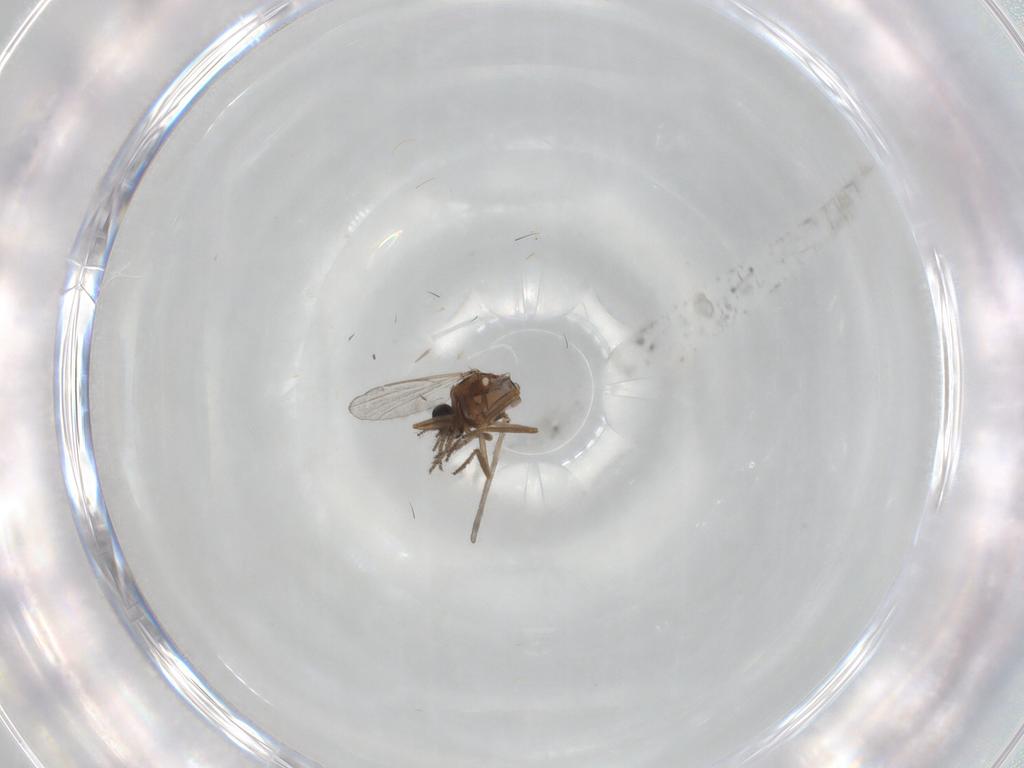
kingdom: Animalia
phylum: Arthropoda
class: Insecta
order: Diptera
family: Ceratopogonidae
